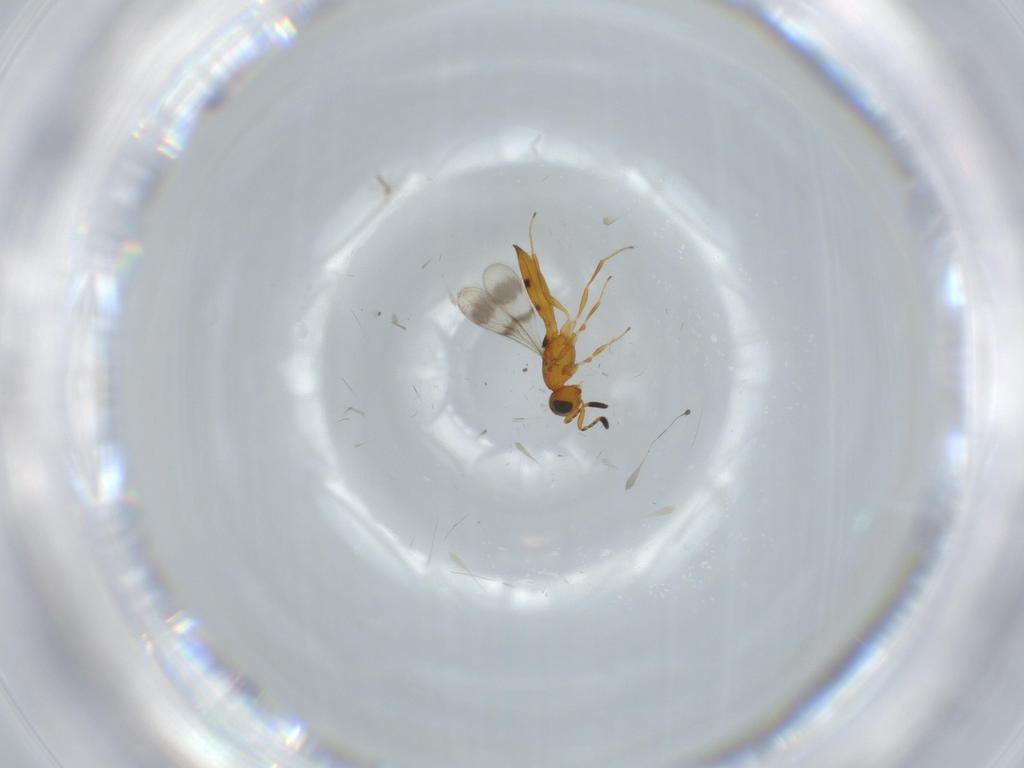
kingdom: Animalia
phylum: Arthropoda
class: Insecta
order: Hymenoptera
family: Scelionidae
